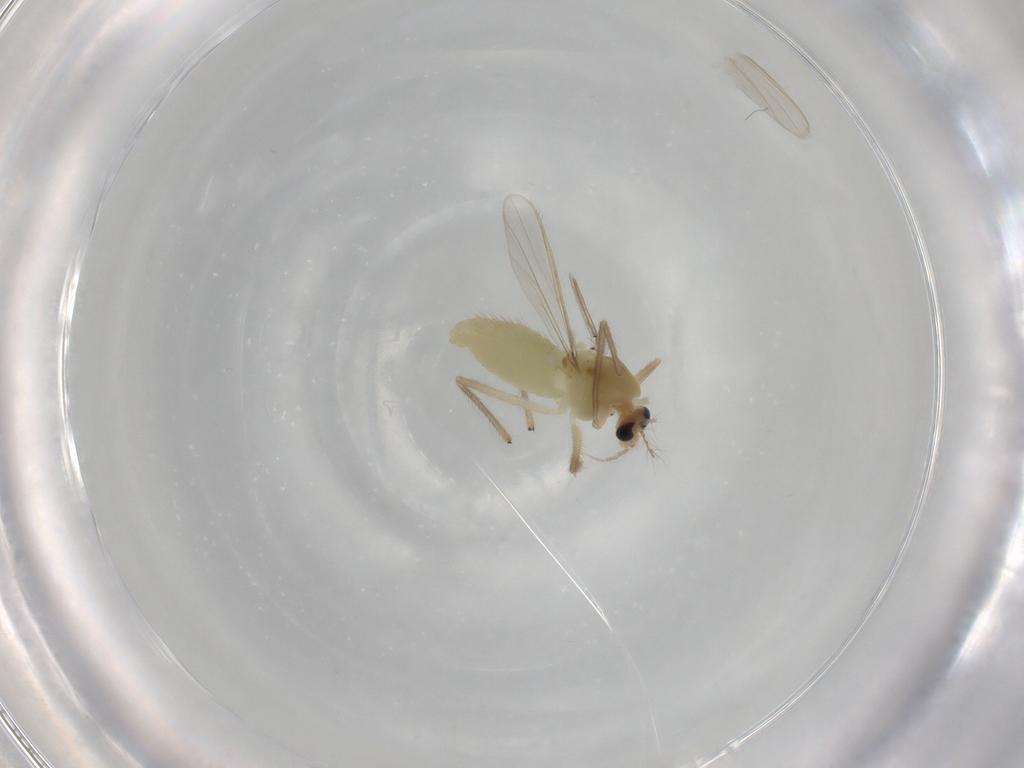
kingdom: Animalia
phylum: Arthropoda
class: Insecta
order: Diptera
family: Chironomidae
